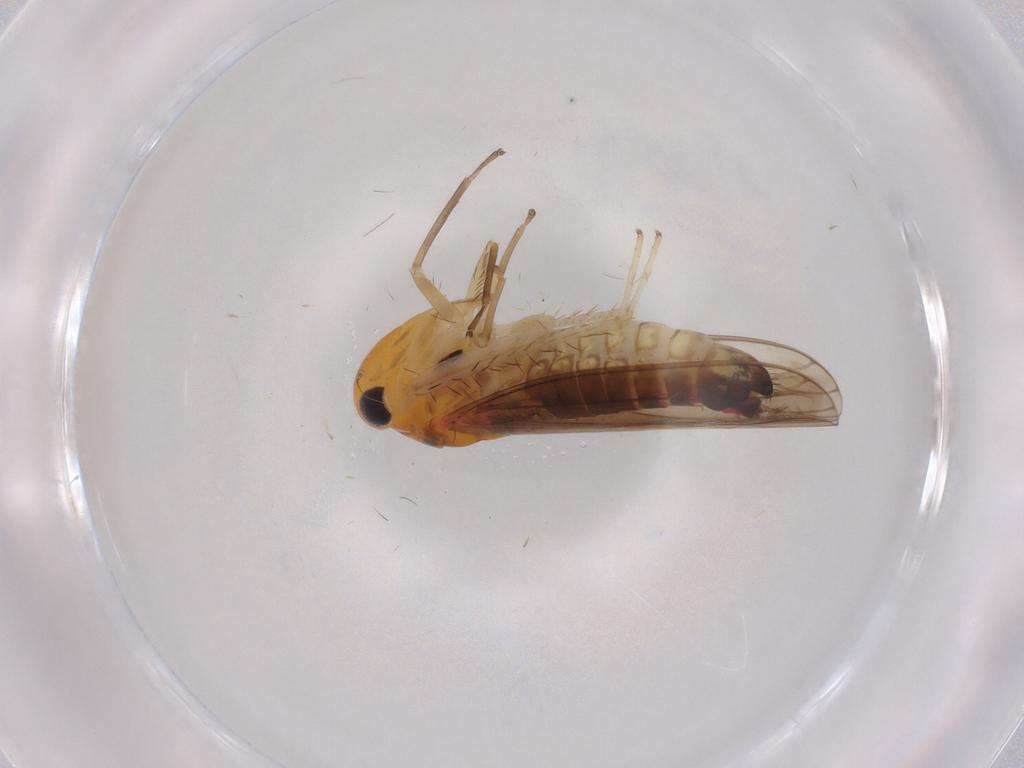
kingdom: Animalia
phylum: Arthropoda
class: Insecta
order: Hemiptera
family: Cicadellidae
